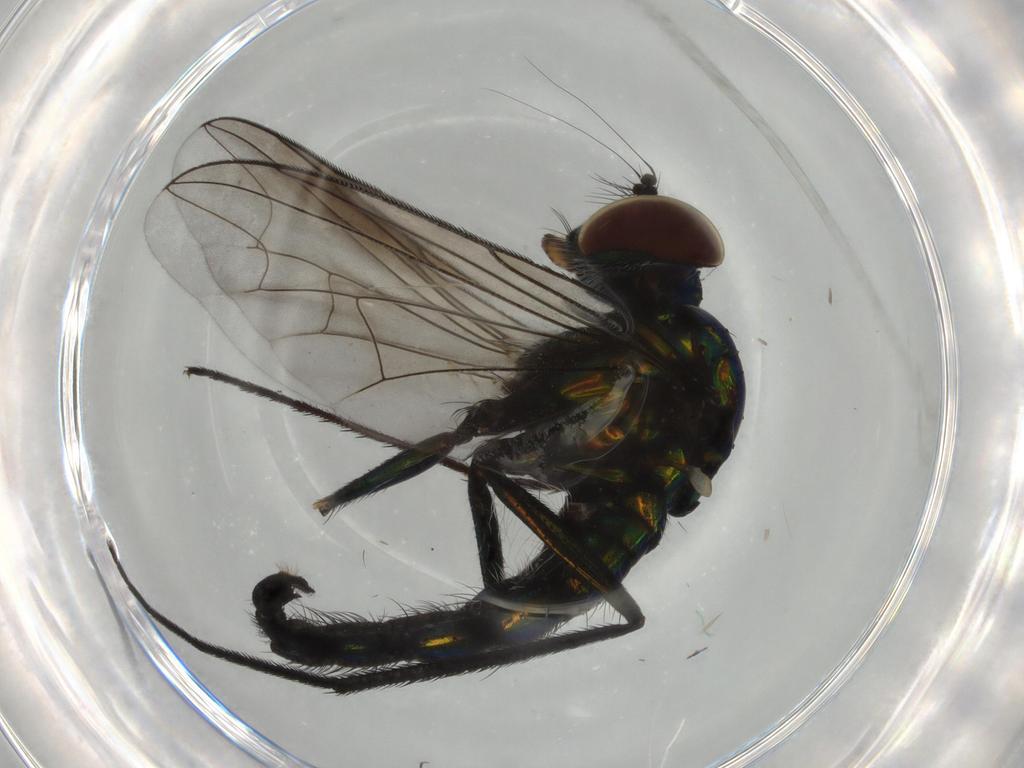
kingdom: Animalia
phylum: Arthropoda
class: Insecta
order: Diptera
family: Dolichopodidae
